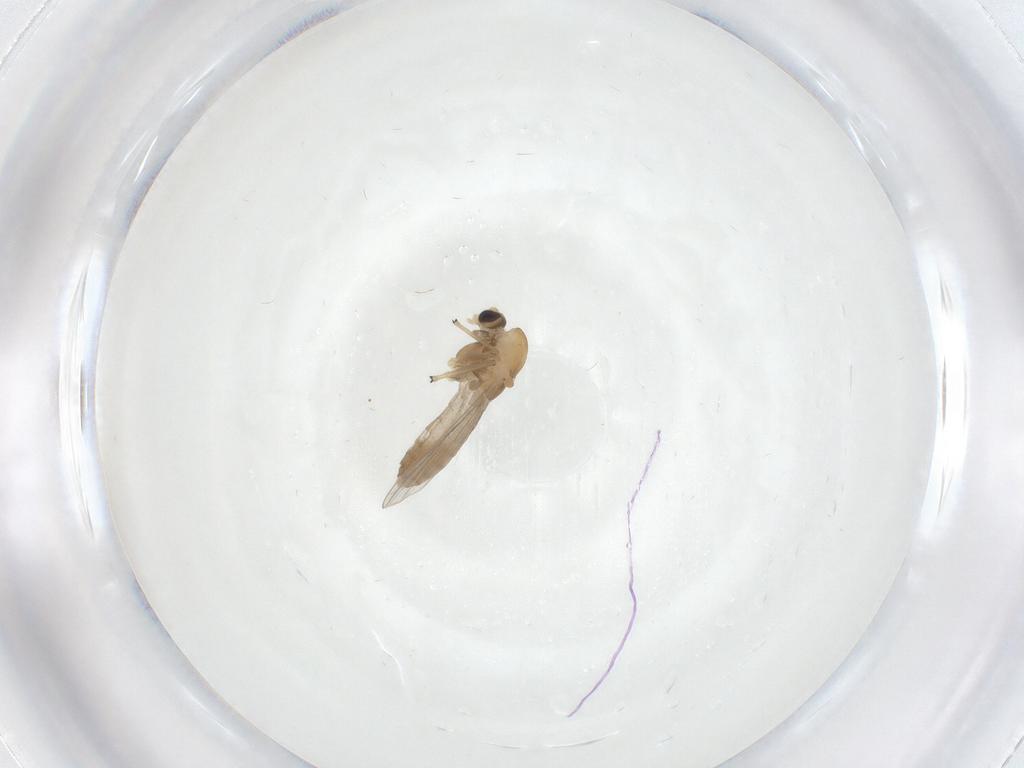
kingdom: Animalia
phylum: Arthropoda
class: Insecta
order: Diptera
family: Chironomidae
